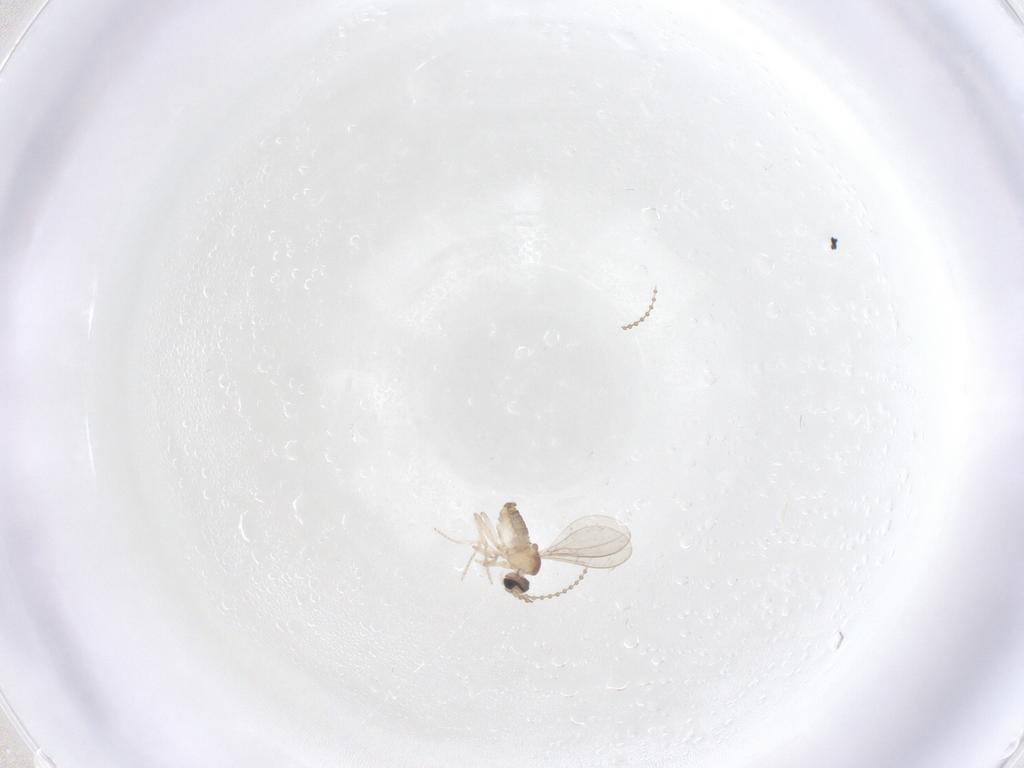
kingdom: Animalia
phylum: Arthropoda
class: Insecta
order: Diptera
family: Cecidomyiidae
